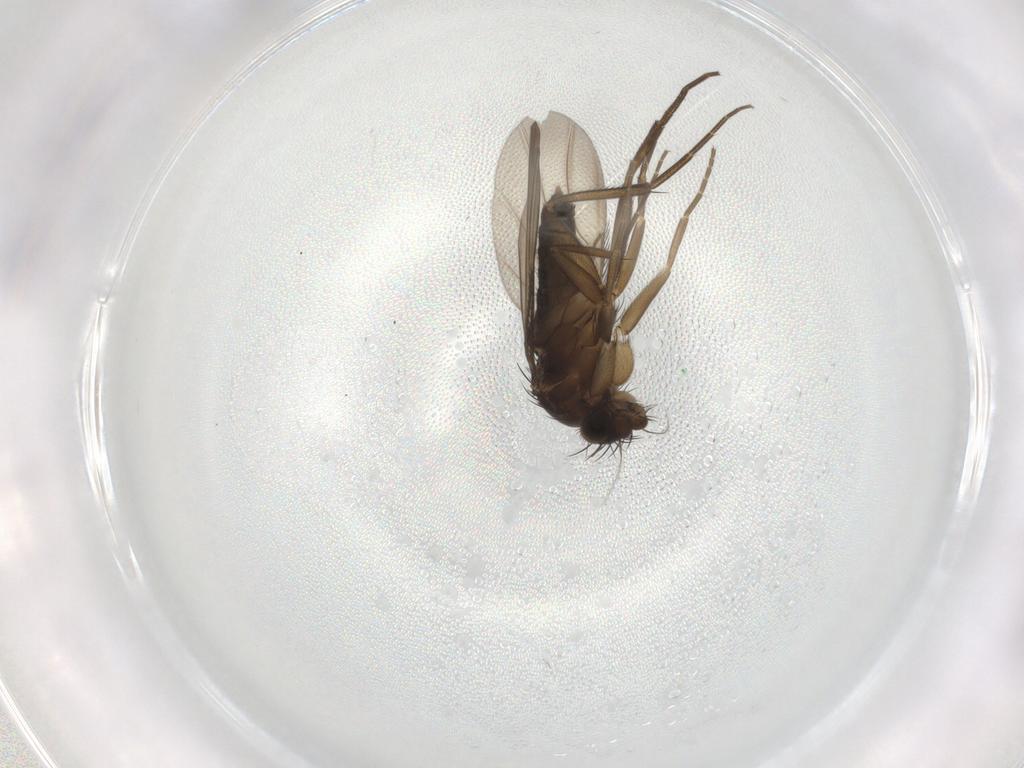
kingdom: Animalia
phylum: Arthropoda
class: Insecta
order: Diptera
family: Phoridae
